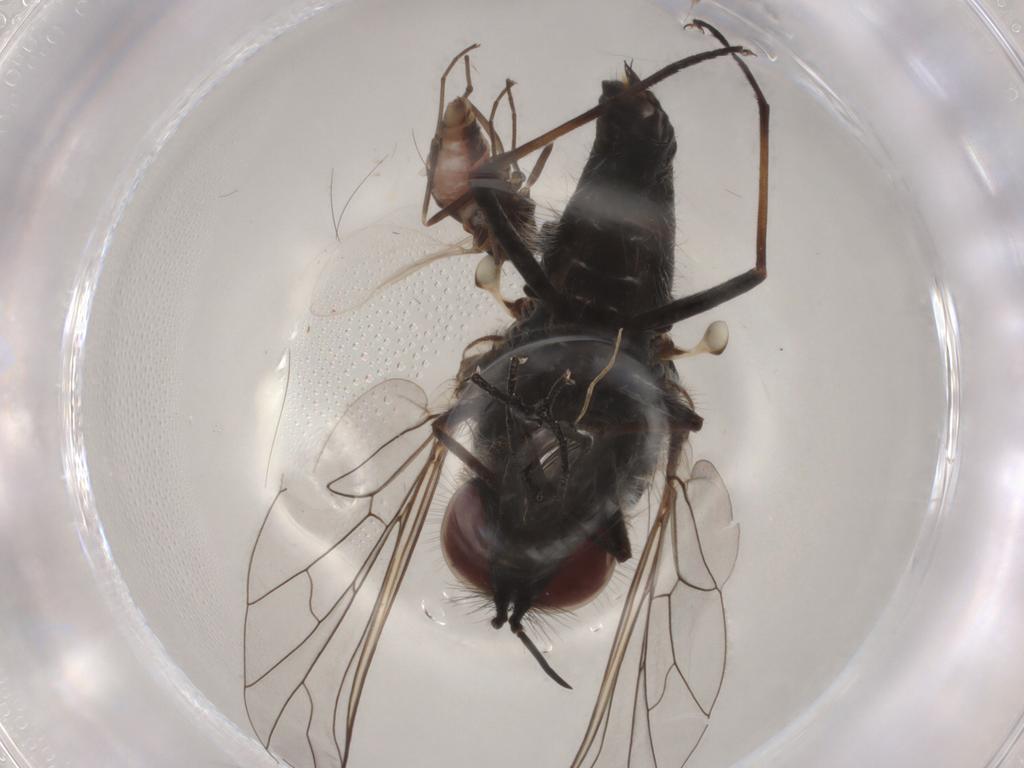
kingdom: Animalia
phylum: Arthropoda
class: Insecta
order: Diptera
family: Cecidomyiidae
